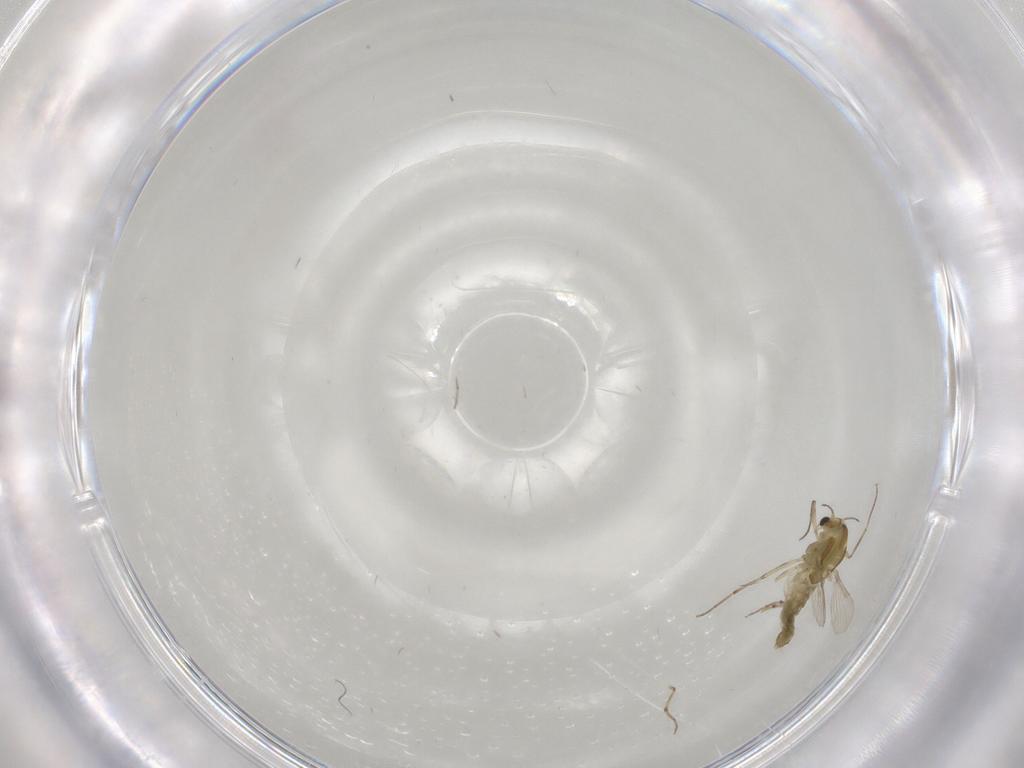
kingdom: Animalia
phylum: Arthropoda
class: Insecta
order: Diptera
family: Chironomidae
